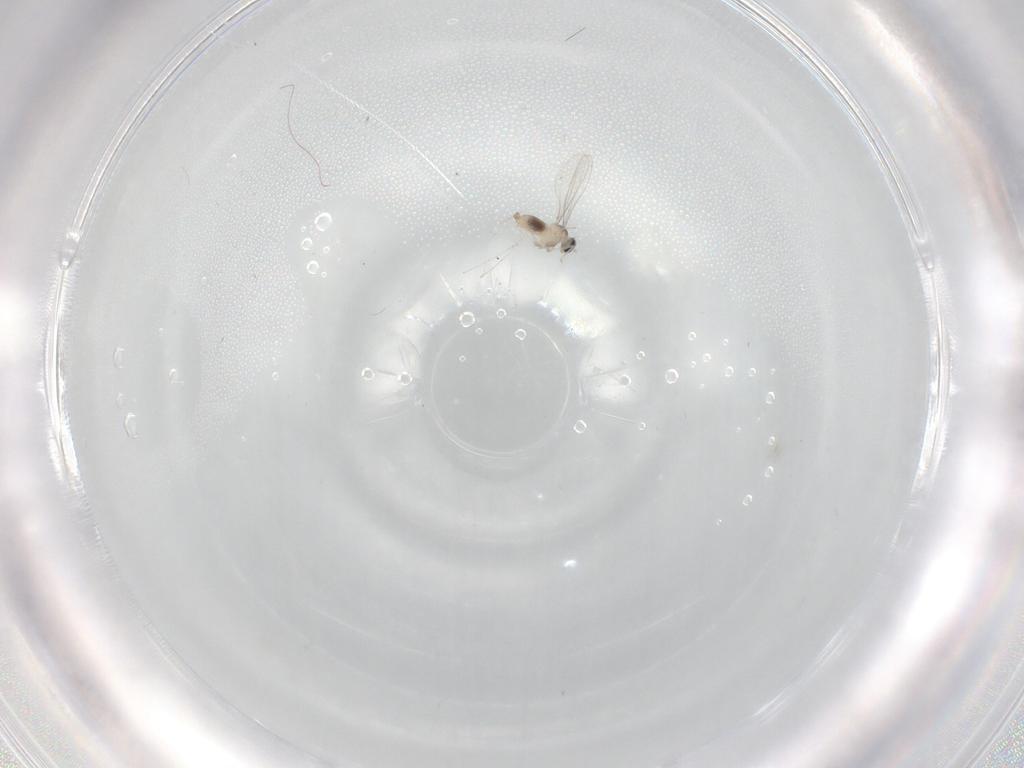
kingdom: Animalia
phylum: Arthropoda
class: Insecta
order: Diptera
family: Cecidomyiidae
